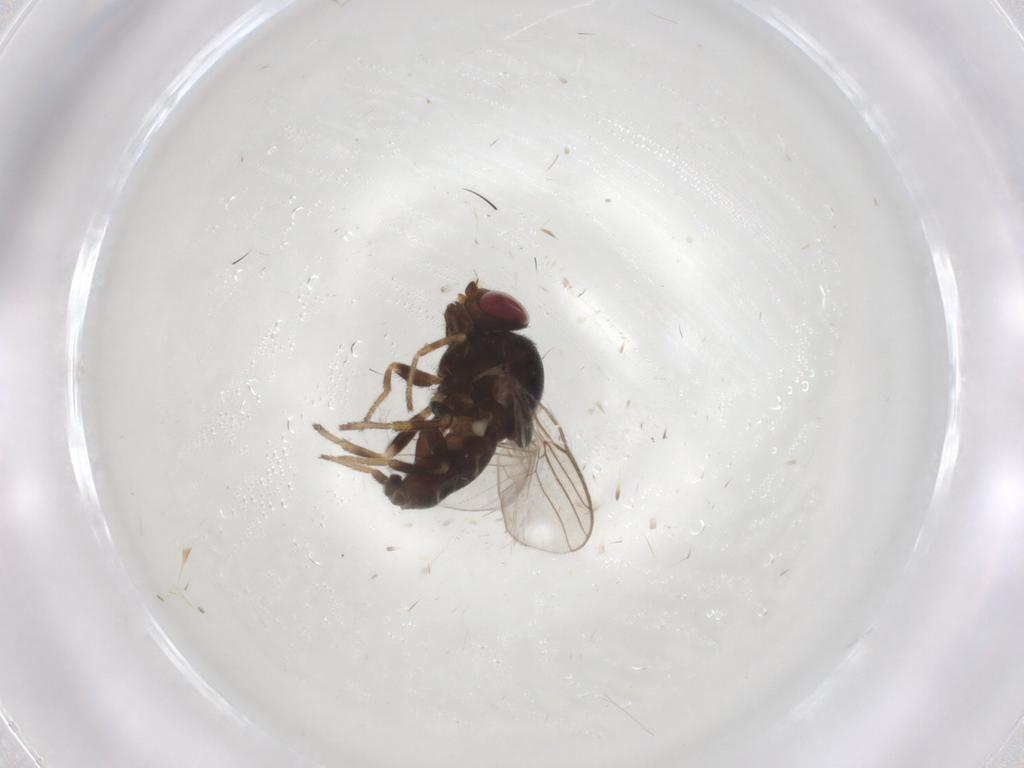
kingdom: Animalia
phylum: Arthropoda
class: Insecta
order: Diptera
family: Chloropidae
